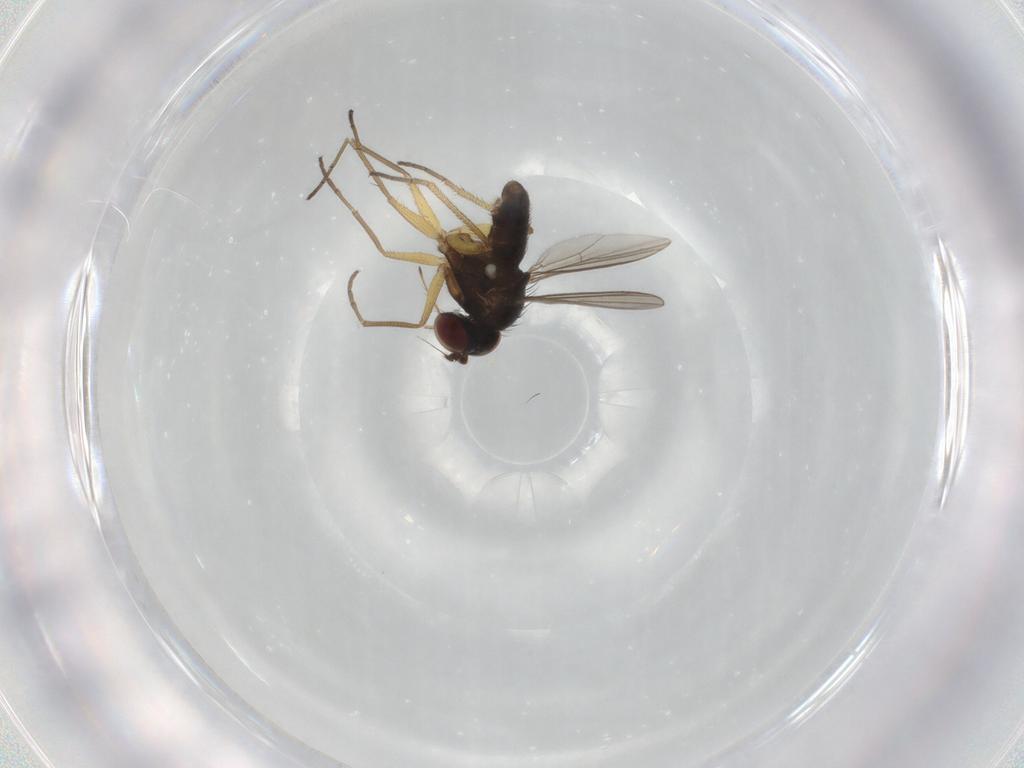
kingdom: Animalia
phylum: Arthropoda
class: Insecta
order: Diptera
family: Dolichopodidae
